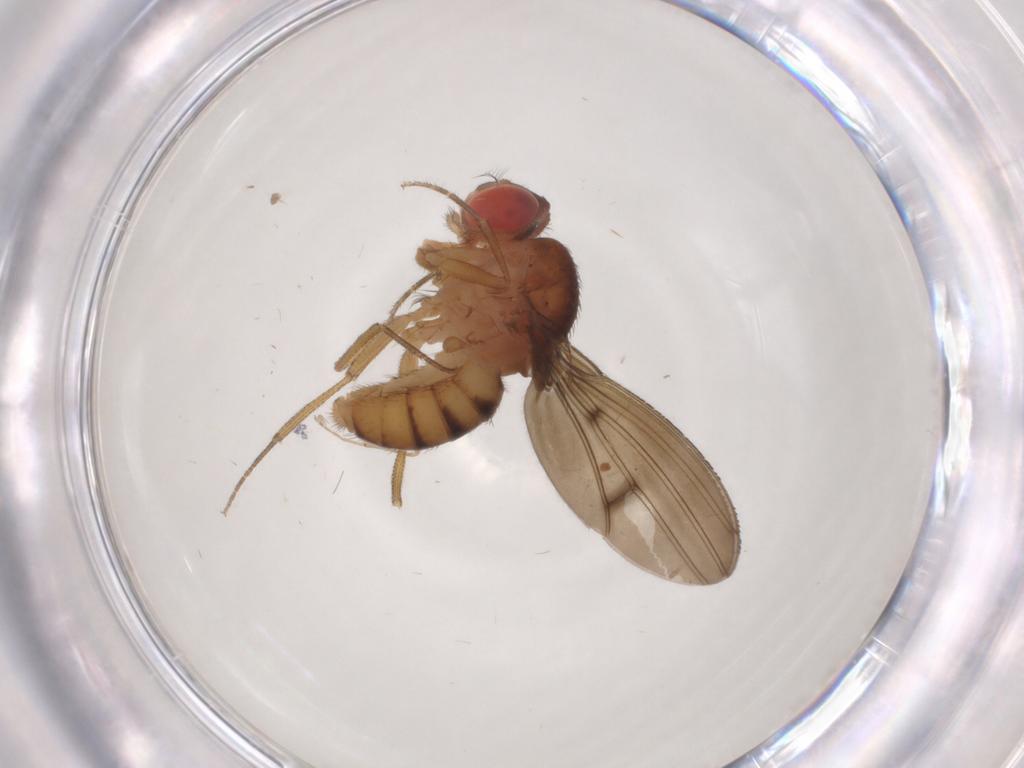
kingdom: Animalia
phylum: Arthropoda
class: Insecta
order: Diptera
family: Drosophilidae
